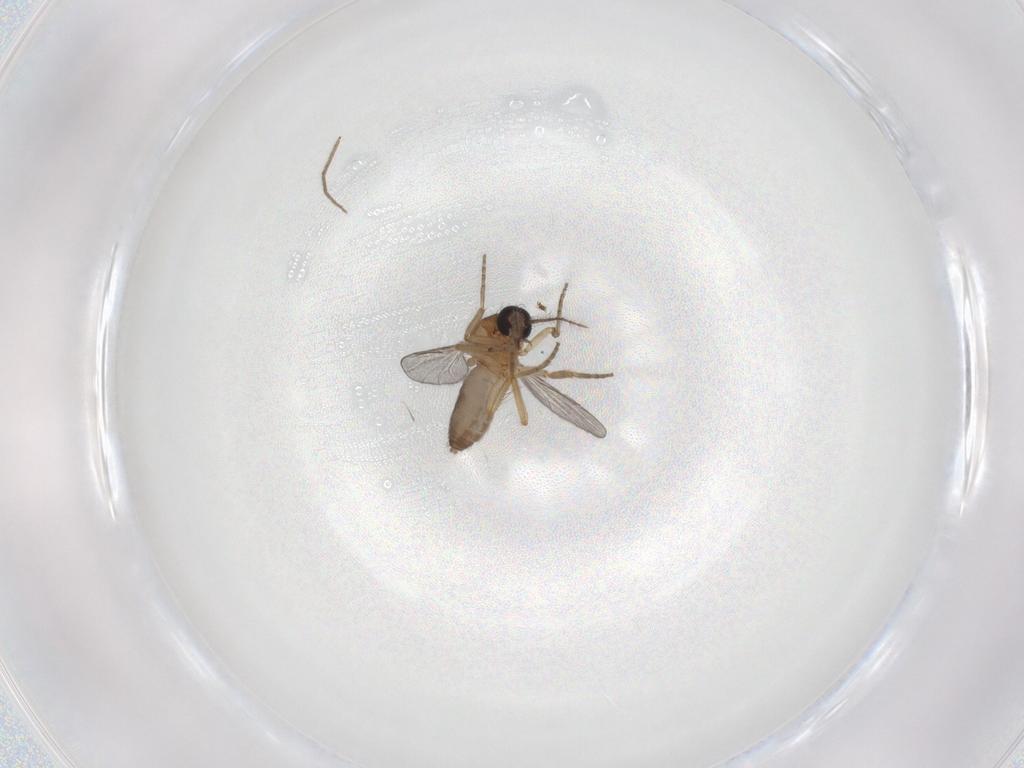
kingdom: Animalia
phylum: Arthropoda
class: Insecta
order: Diptera
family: Ceratopogonidae
